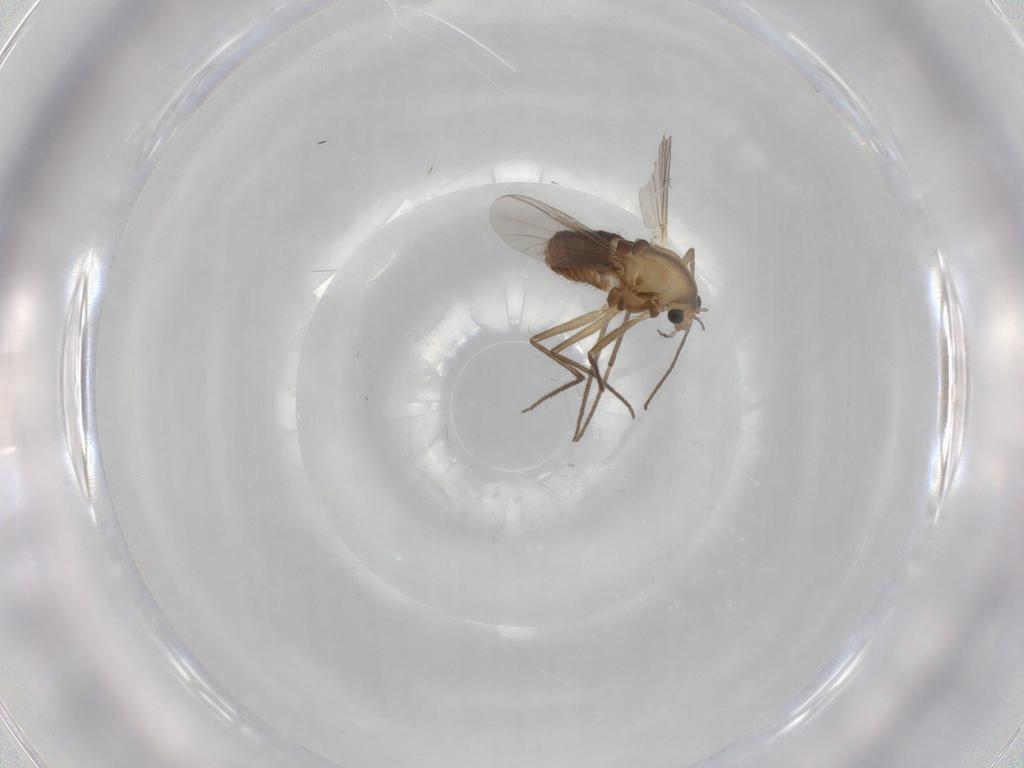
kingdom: Animalia
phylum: Arthropoda
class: Insecta
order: Diptera
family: Chironomidae
